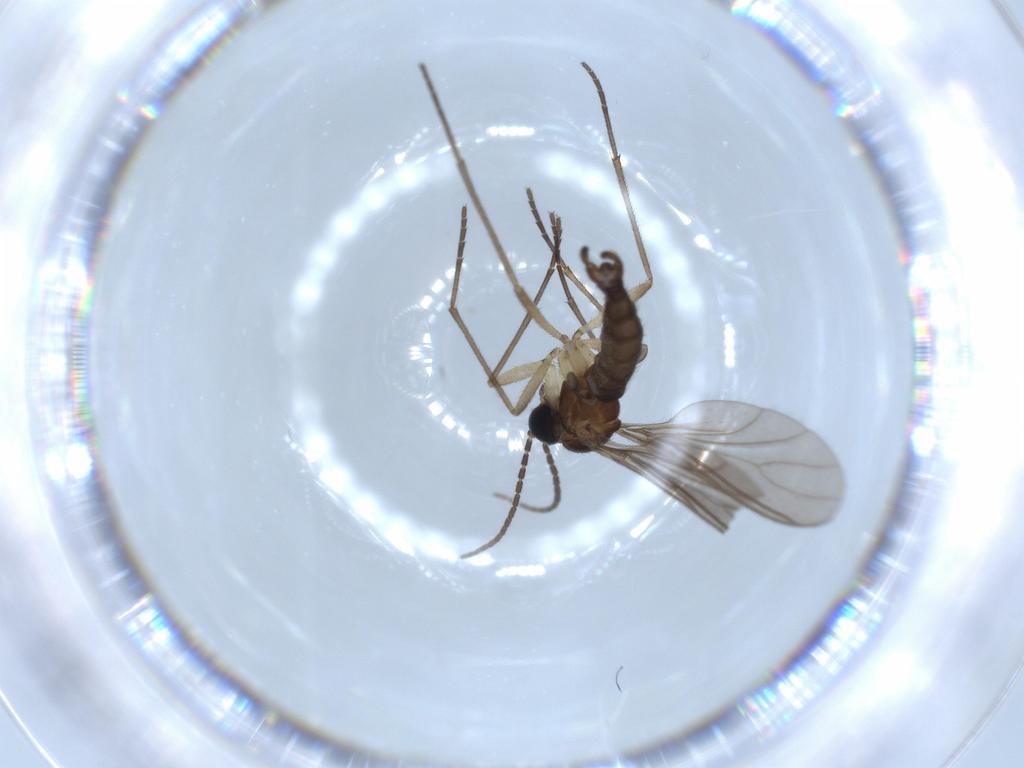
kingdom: Animalia
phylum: Arthropoda
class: Insecta
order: Diptera
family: Sciaridae
